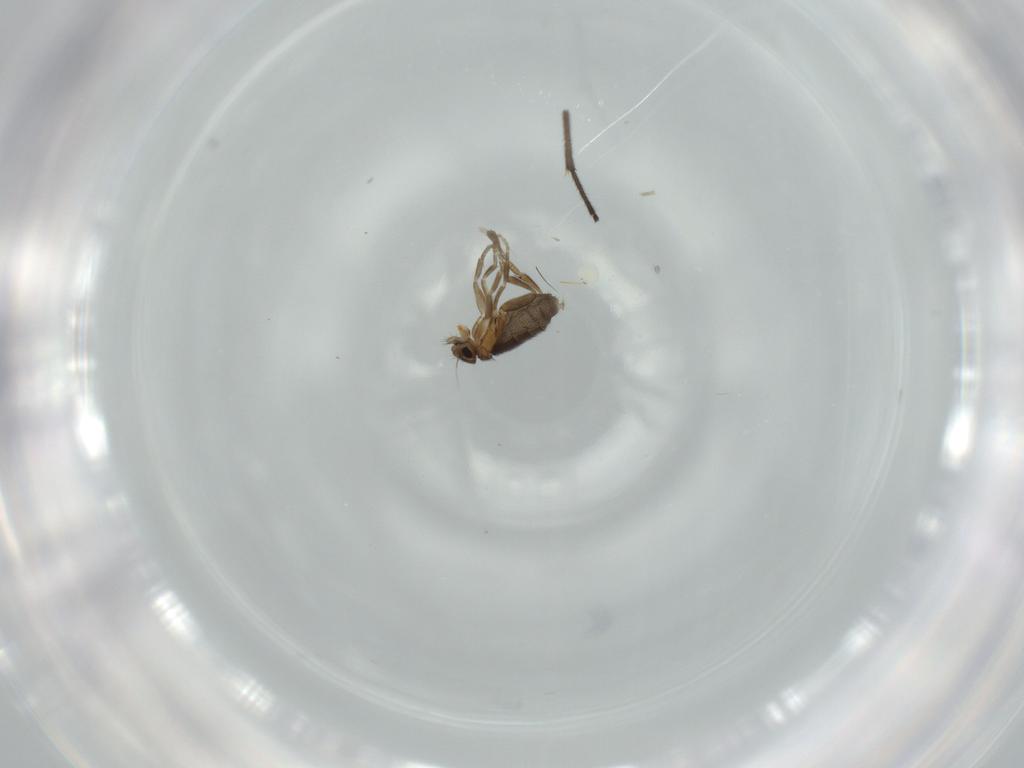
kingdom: Animalia
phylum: Arthropoda
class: Insecta
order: Diptera
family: Sciaridae
